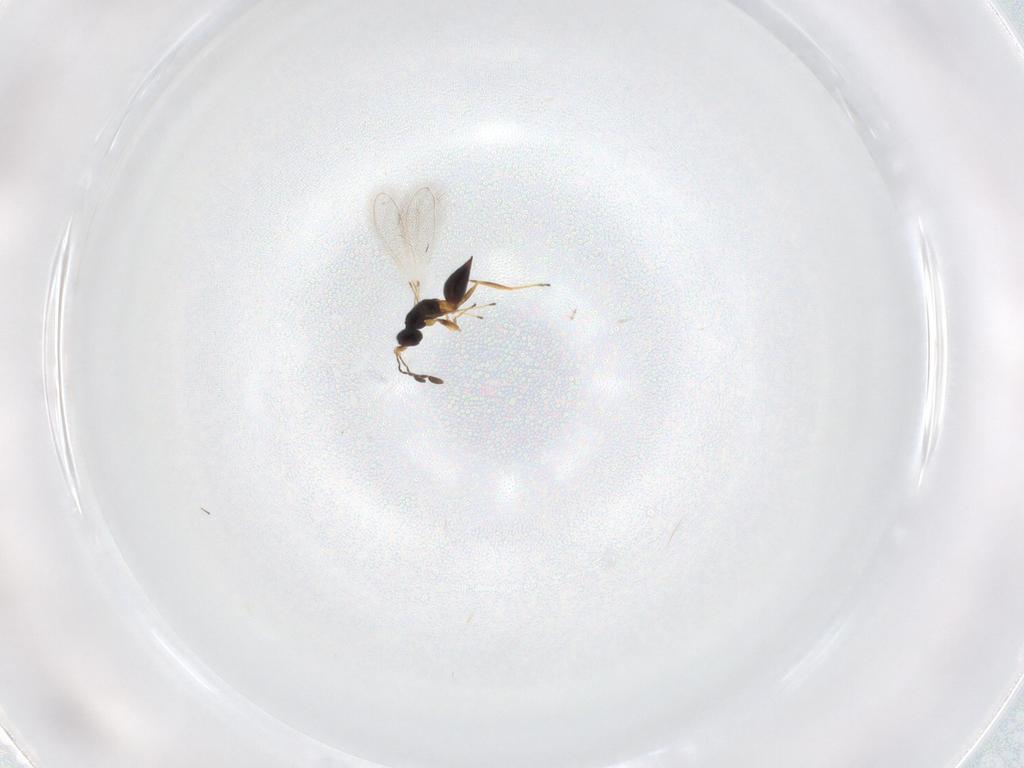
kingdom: Animalia
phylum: Arthropoda
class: Insecta
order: Hymenoptera
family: Mymaridae
